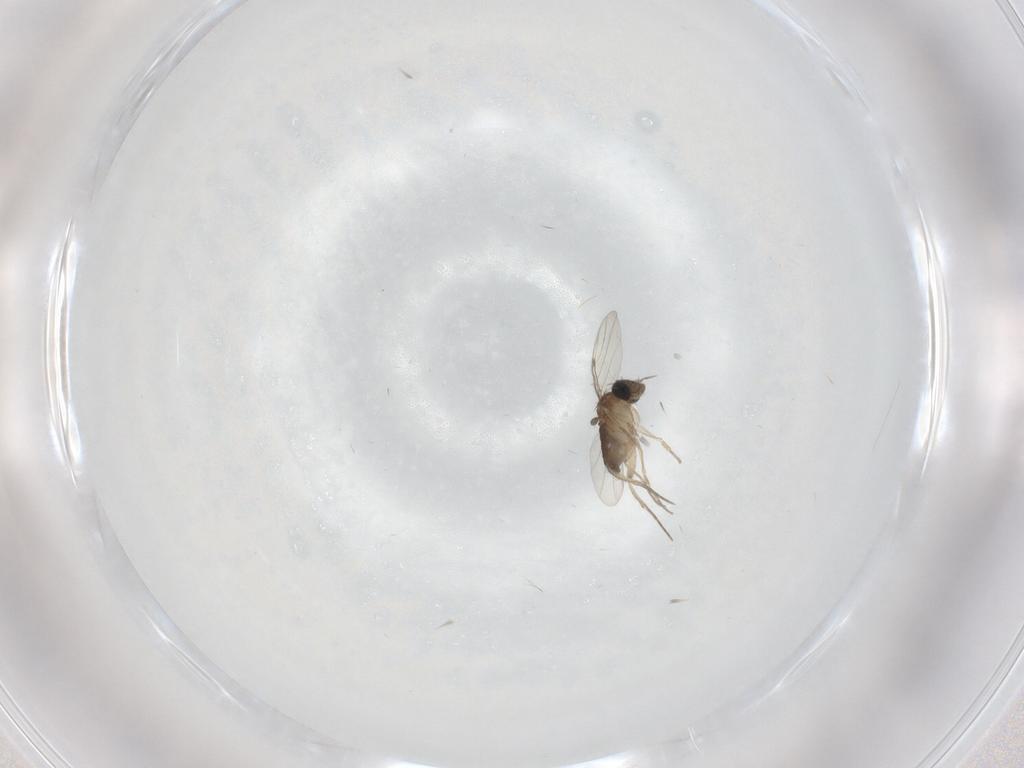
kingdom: Animalia
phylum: Arthropoda
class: Insecta
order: Diptera
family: Phoridae
